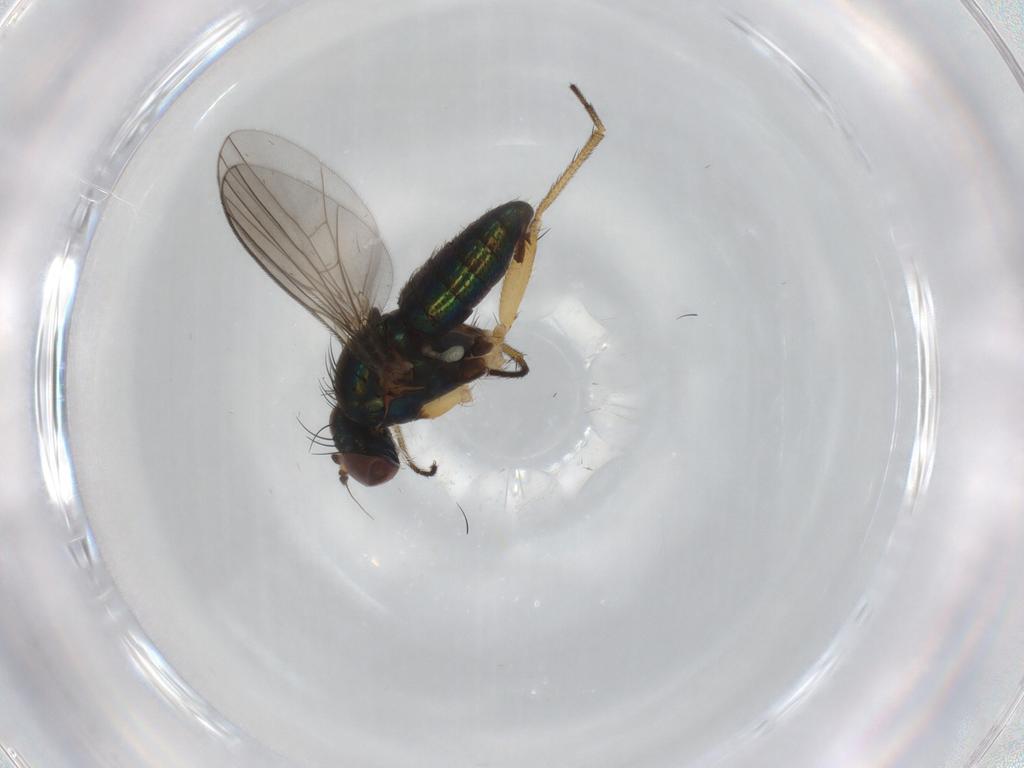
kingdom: Animalia
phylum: Arthropoda
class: Insecta
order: Diptera
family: Dolichopodidae
